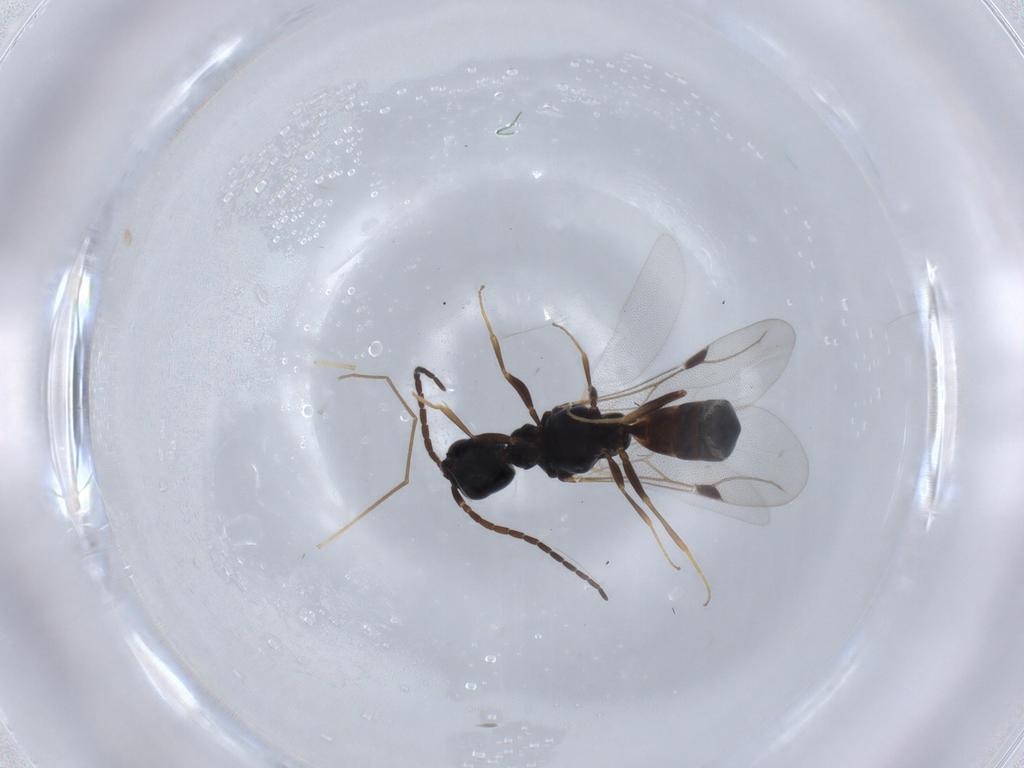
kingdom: Animalia
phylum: Arthropoda
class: Insecta
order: Hymenoptera
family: Bethylidae
